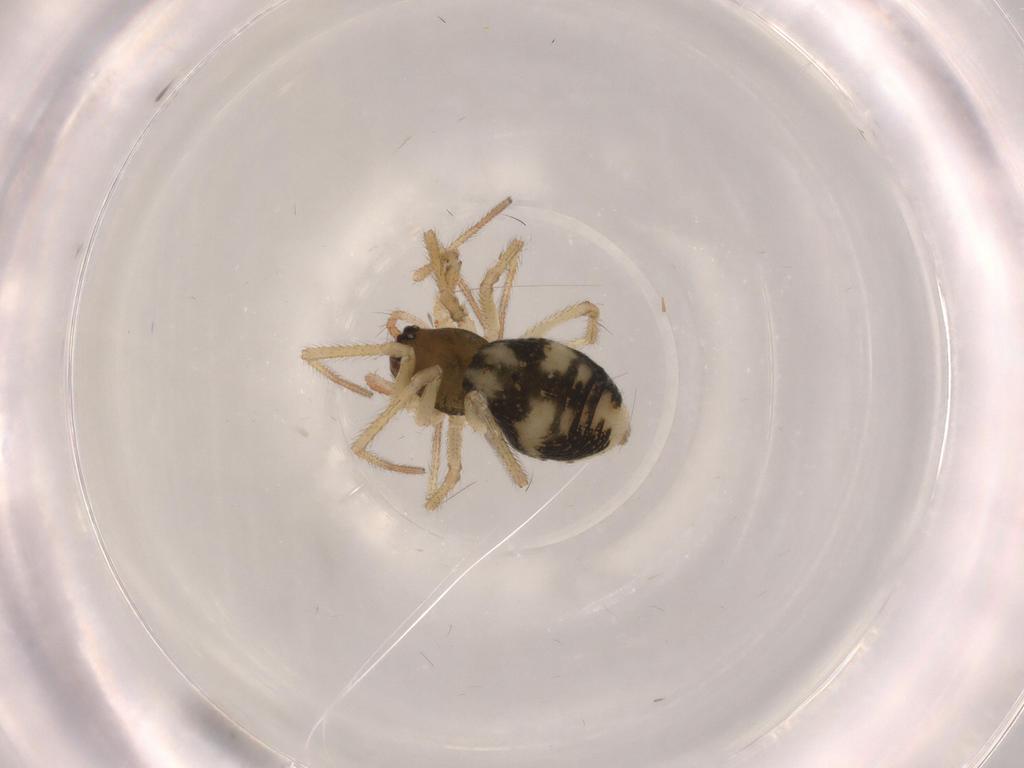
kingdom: Animalia
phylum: Arthropoda
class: Arachnida
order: Araneae
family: Linyphiidae
